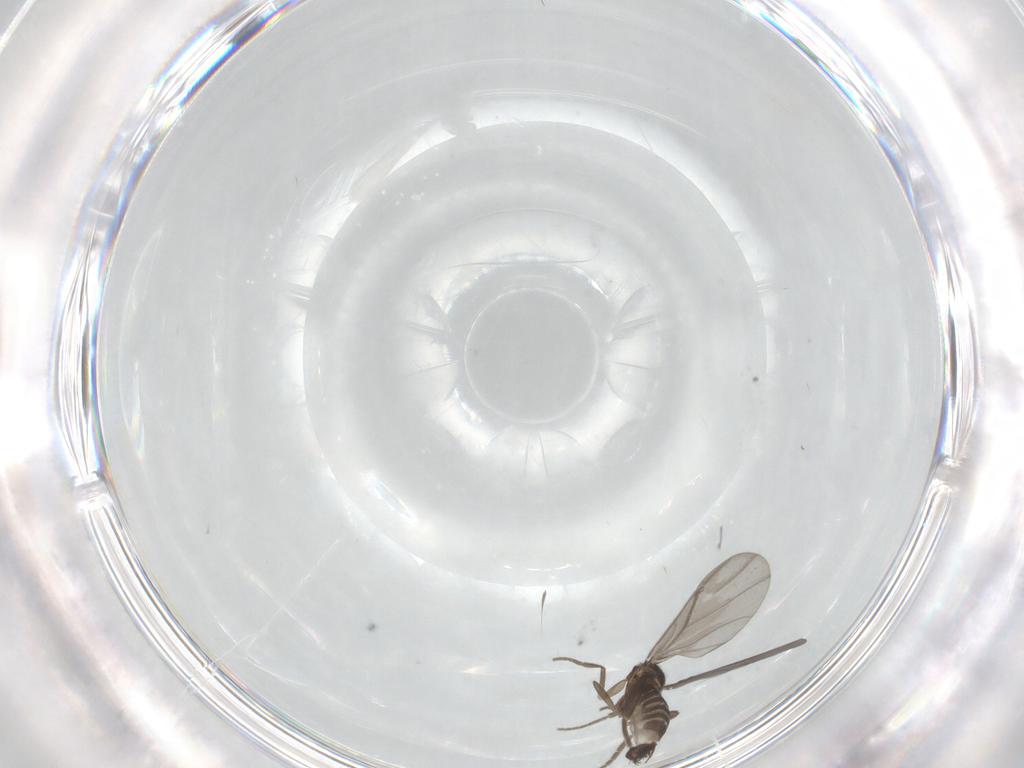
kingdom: Animalia
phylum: Arthropoda
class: Insecta
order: Diptera
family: Phoridae
